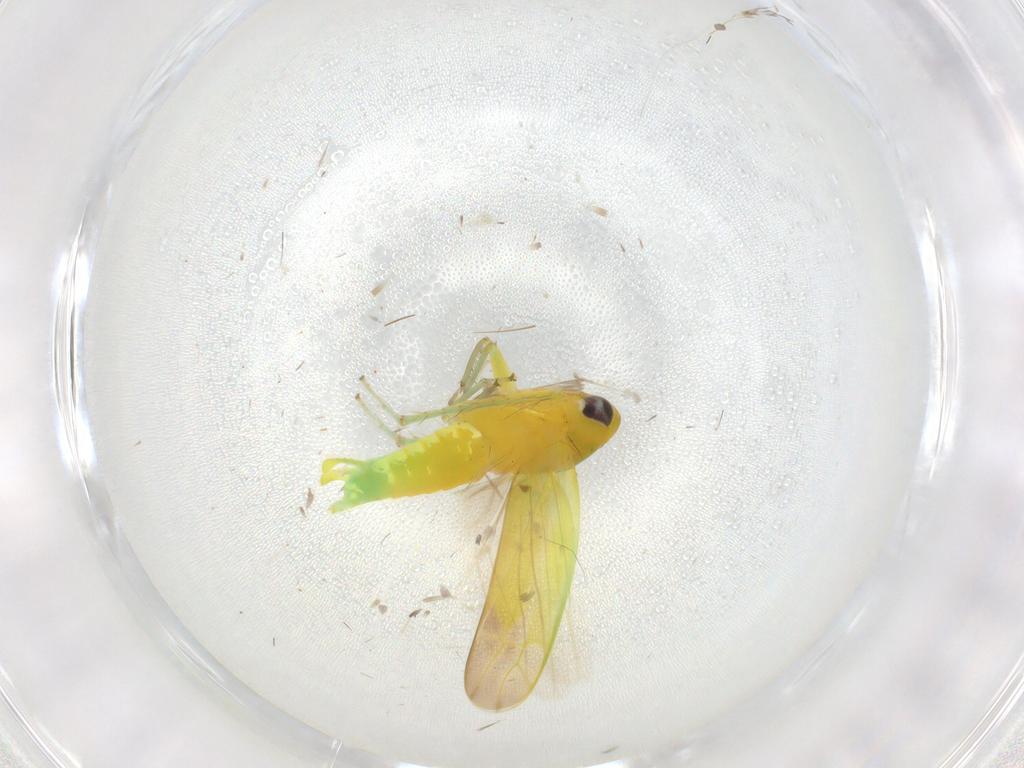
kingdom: Animalia
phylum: Arthropoda
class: Insecta
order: Hemiptera
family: Cicadellidae
